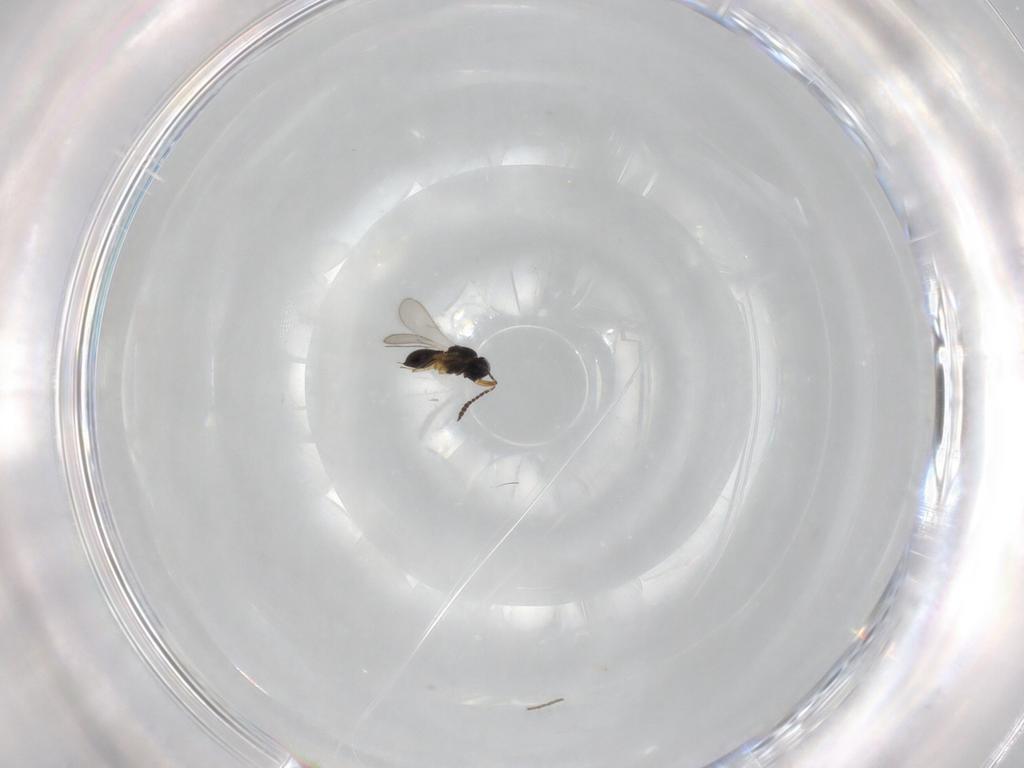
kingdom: Animalia
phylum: Arthropoda
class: Insecta
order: Hymenoptera
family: Scelionidae
